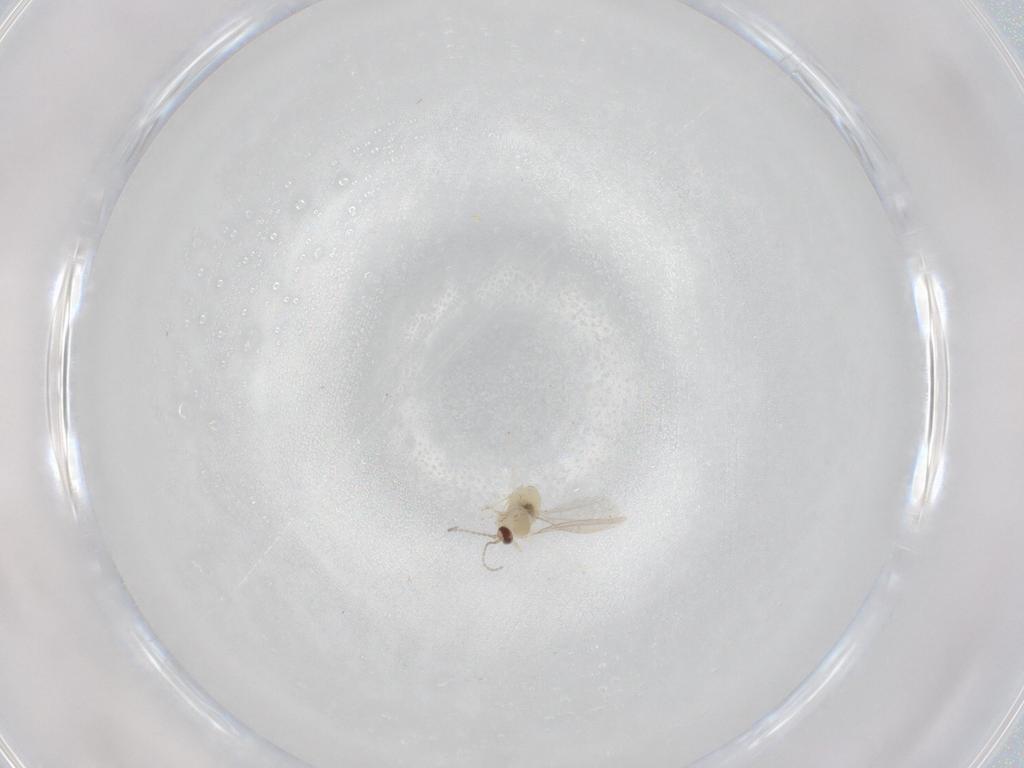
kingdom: Animalia
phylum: Arthropoda
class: Insecta
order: Diptera
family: Cecidomyiidae
